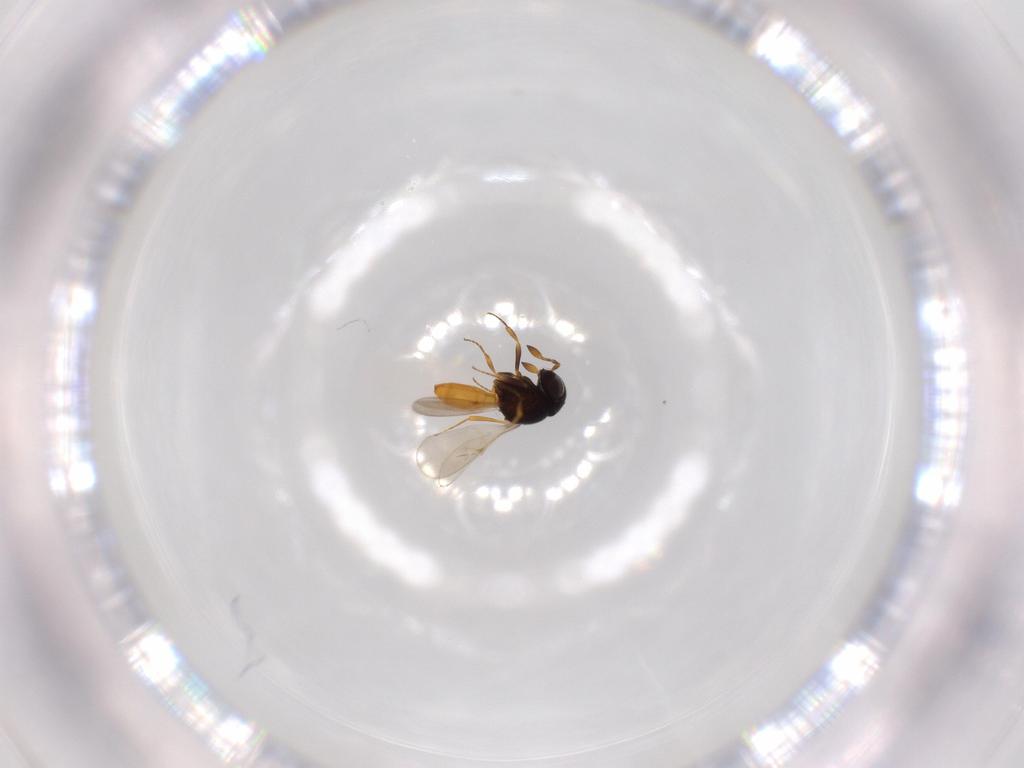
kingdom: Animalia
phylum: Arthropoda
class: Insecta
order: Hymenoptera
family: Scelionidae
